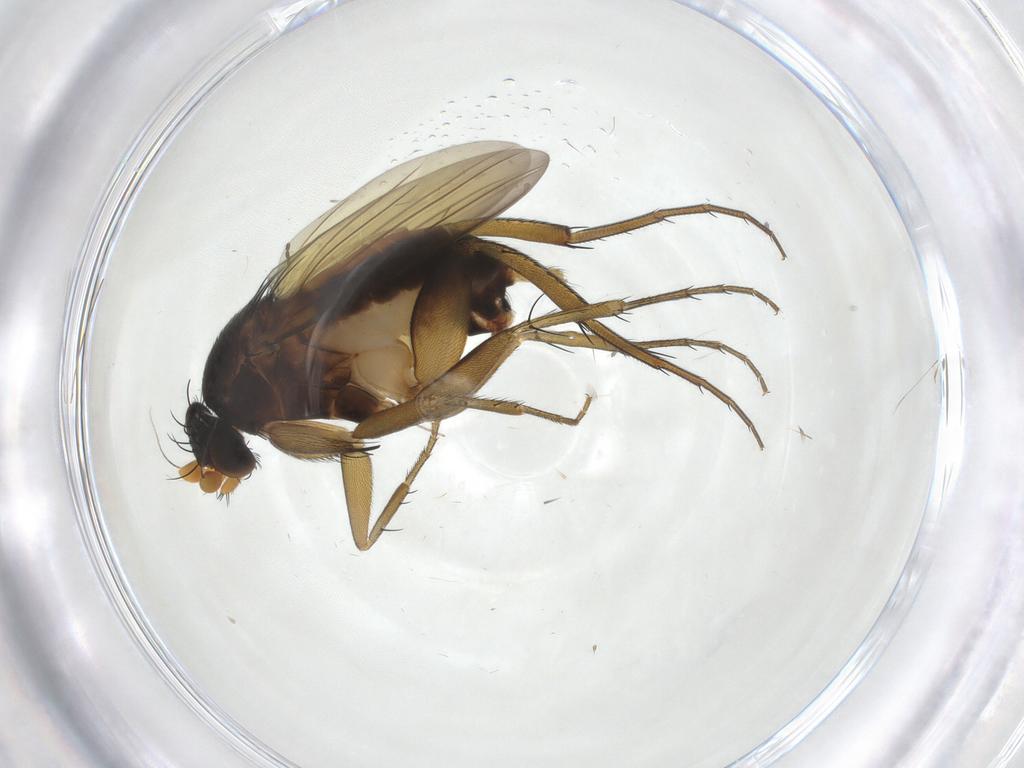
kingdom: Animalia
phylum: Arthropoda
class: Insecta
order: Diptera
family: Phoridae
